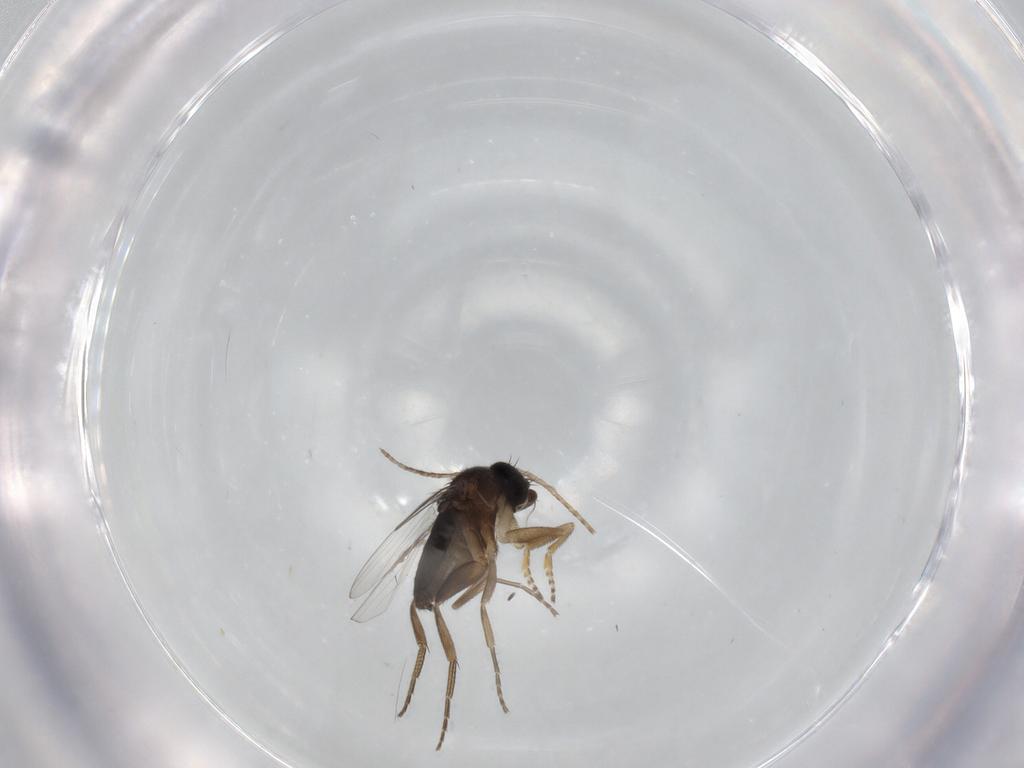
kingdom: Animalia
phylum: Arthropoda
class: Insecta
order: Diptera
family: Phoridae
